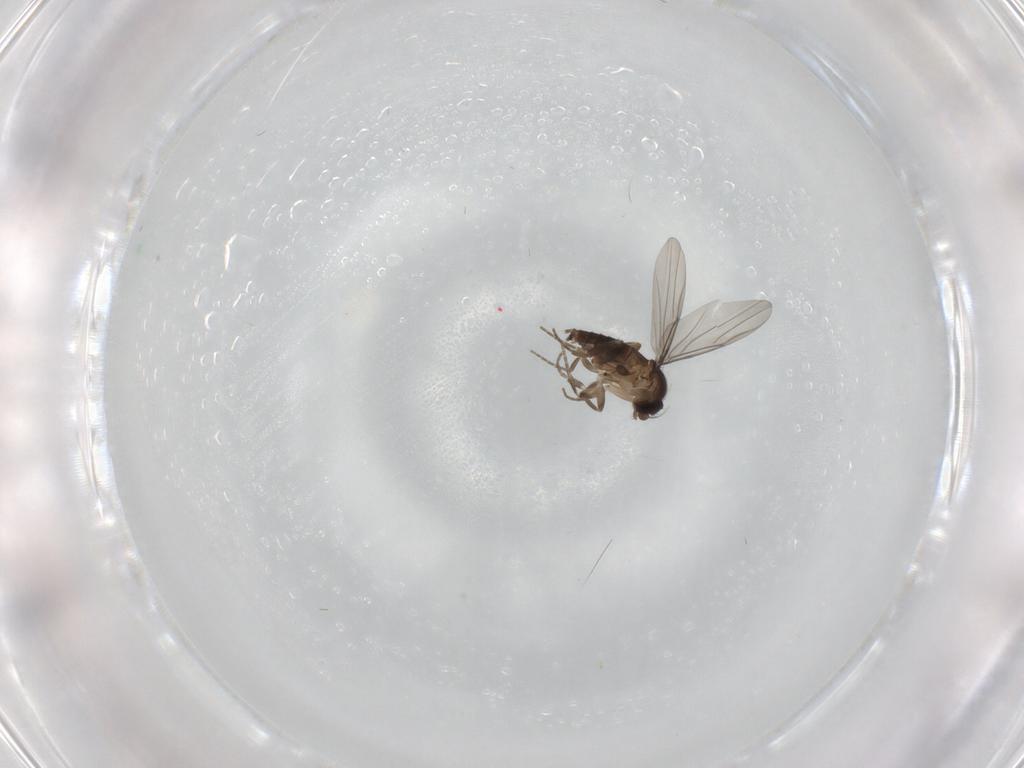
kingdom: Animalia
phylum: Arthropoda
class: Insecta
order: Diptera
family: Phoridae
